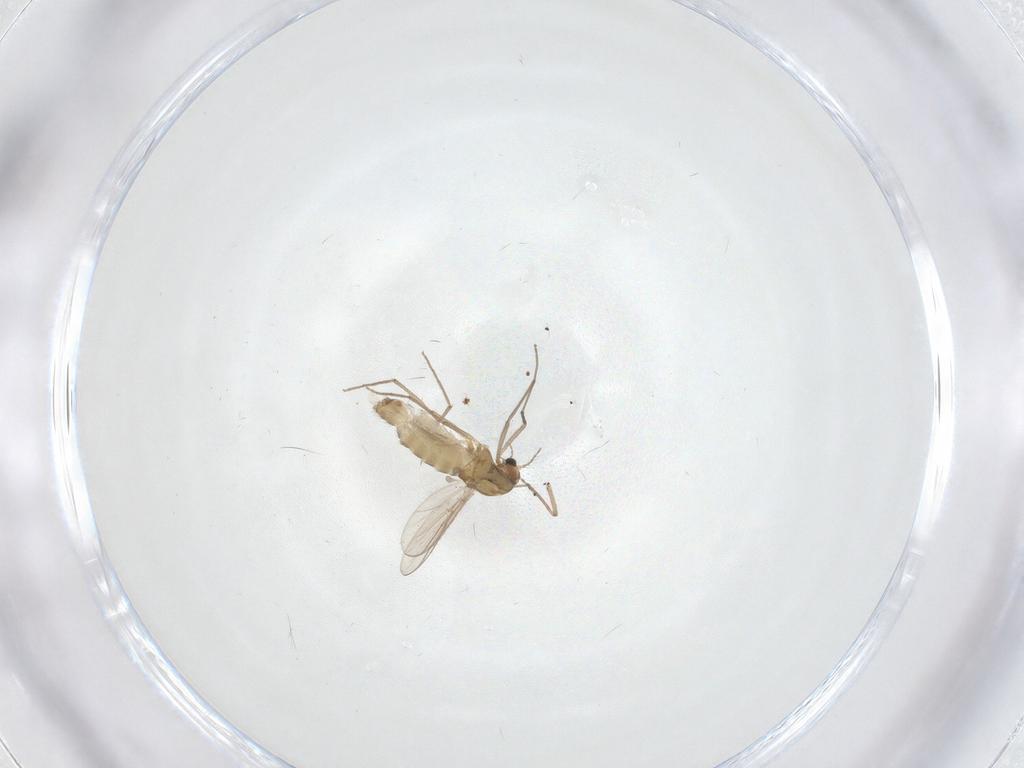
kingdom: Animalia
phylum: Arthropoda
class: Insecta
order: Diptera
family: Chironomidae
